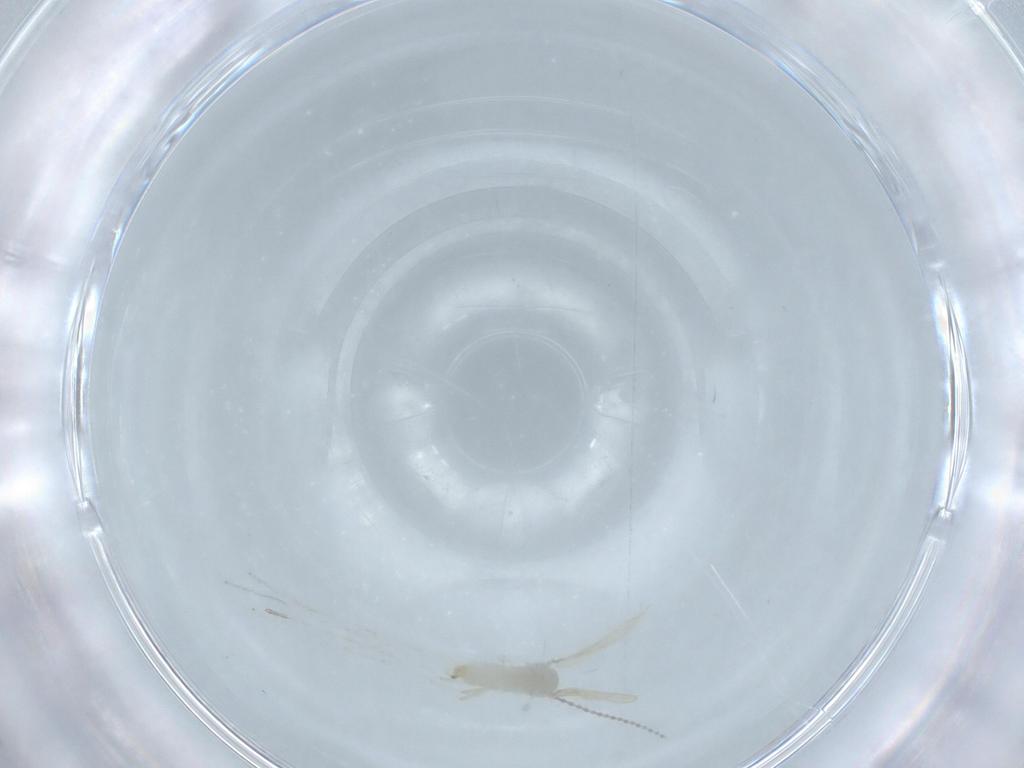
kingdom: Animalia
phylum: Arthropoda
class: Insecta
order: Diptera
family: Cecidomyiidae
